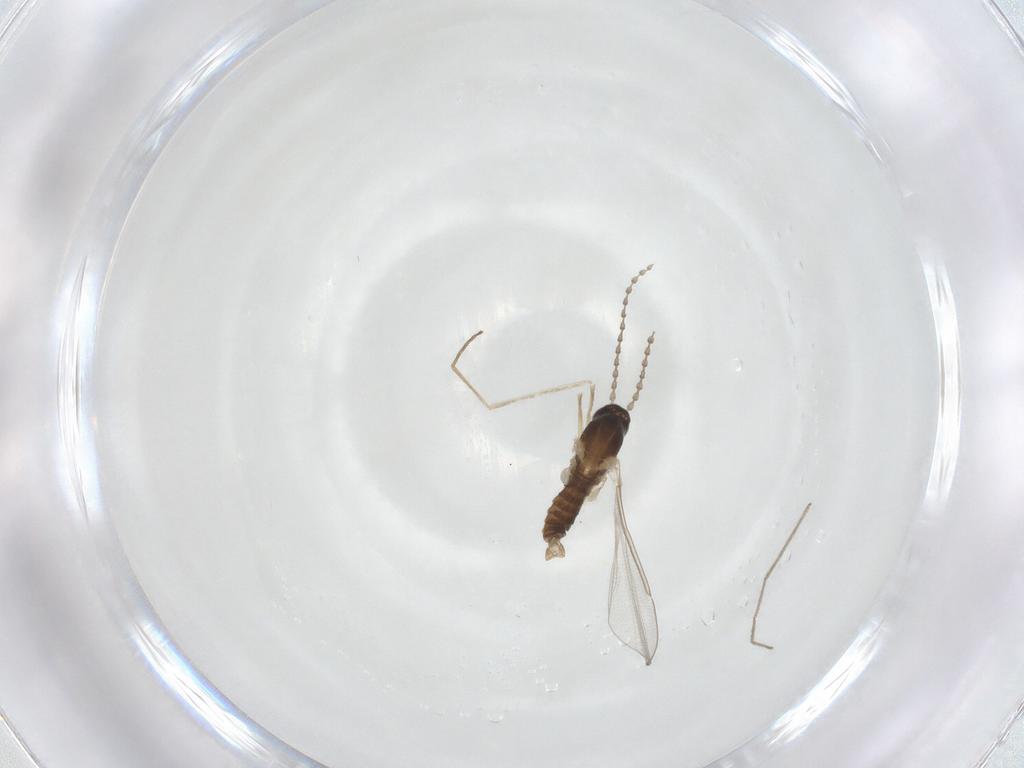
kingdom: Animalia
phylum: Arthropoda
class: Insecta
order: Diptera
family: Cecidomyiidae
